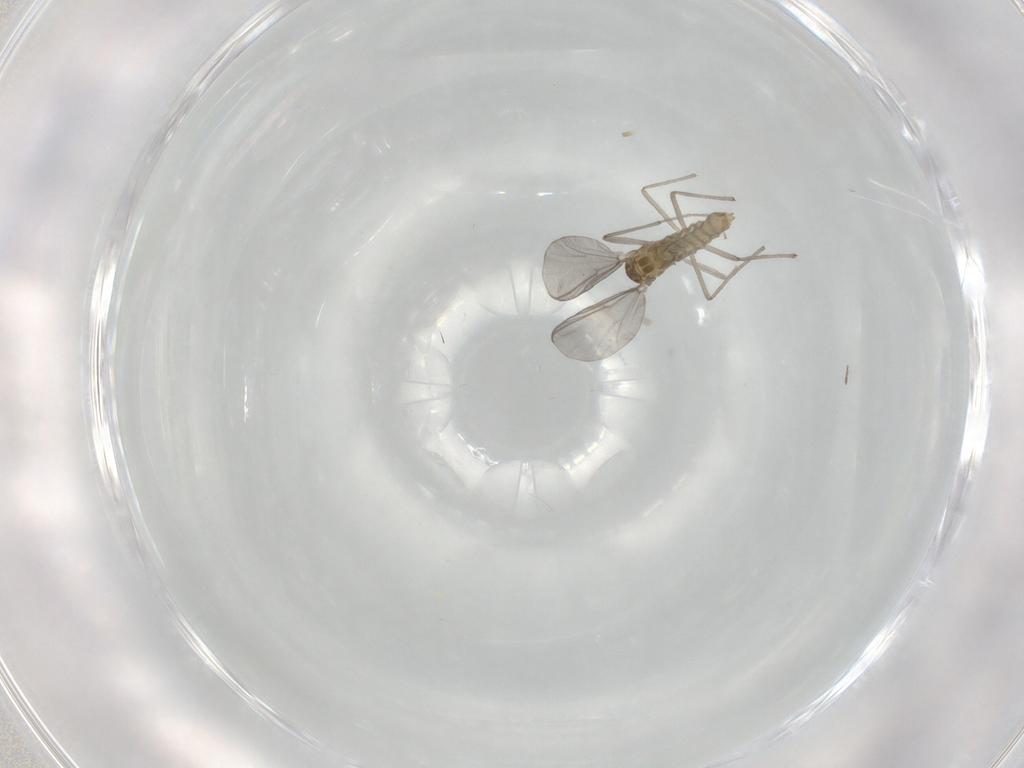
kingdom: Animalia
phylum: Arthropoda
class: Insecta
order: Diptera
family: Chironomidae
